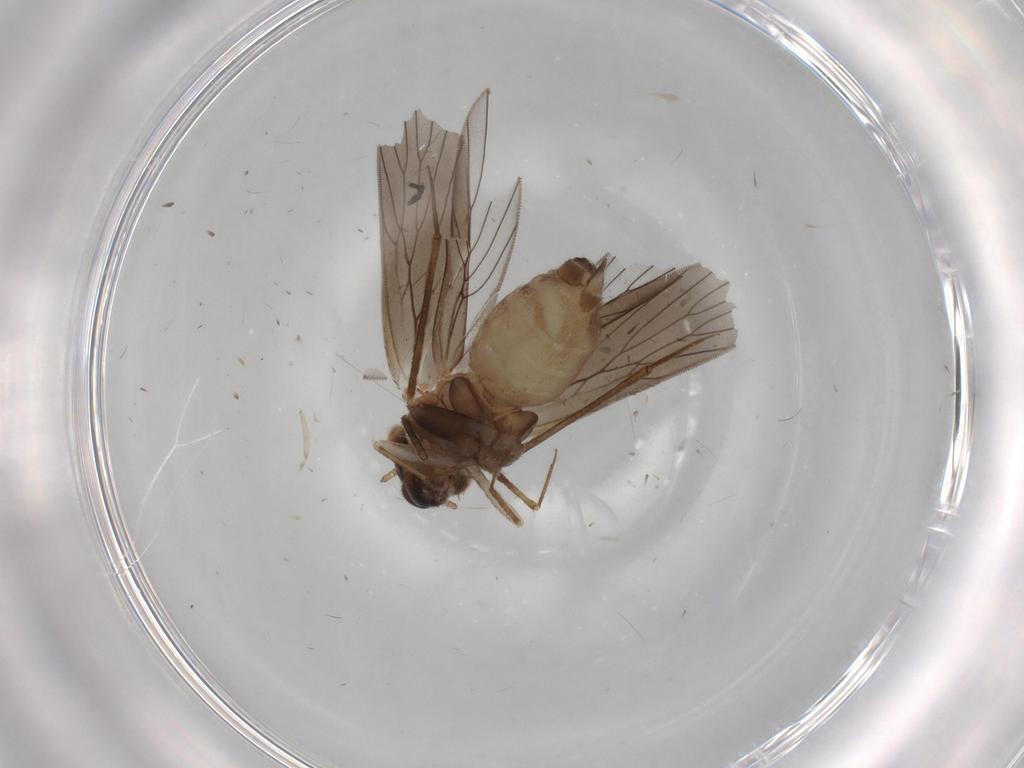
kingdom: Animalia
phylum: Arthropoda
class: Insecta
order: Psocodea
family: Lepidopsocidae
